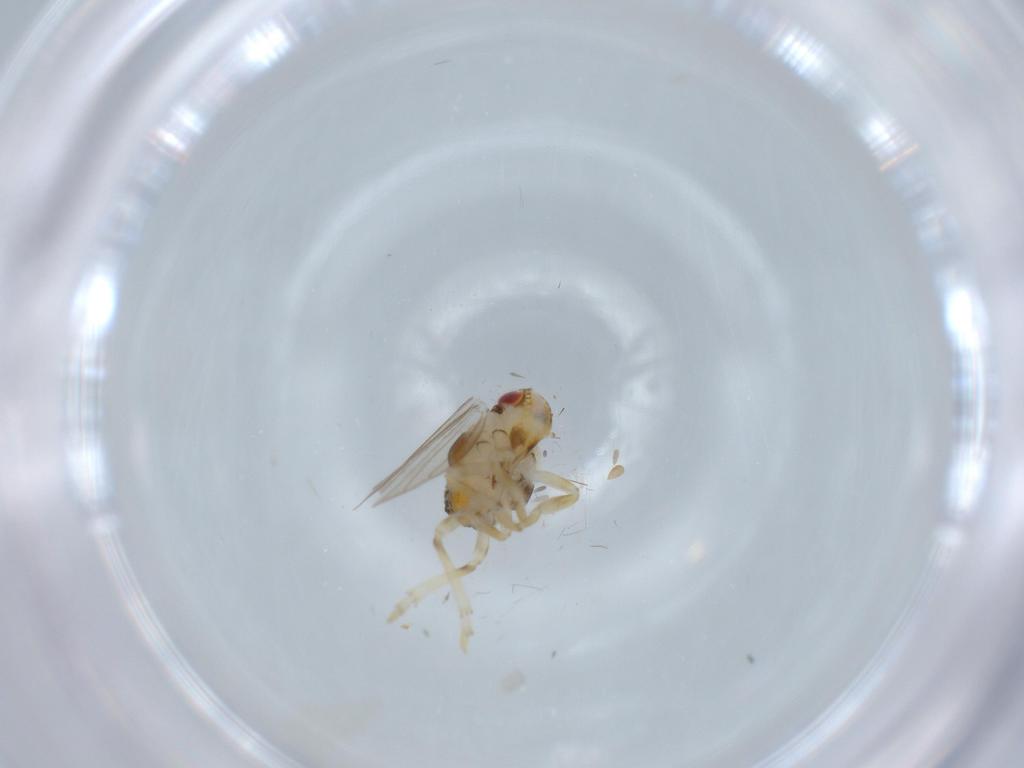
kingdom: Animalia
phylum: Arthropoda
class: Insecta
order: Hemiptera
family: Issidae
